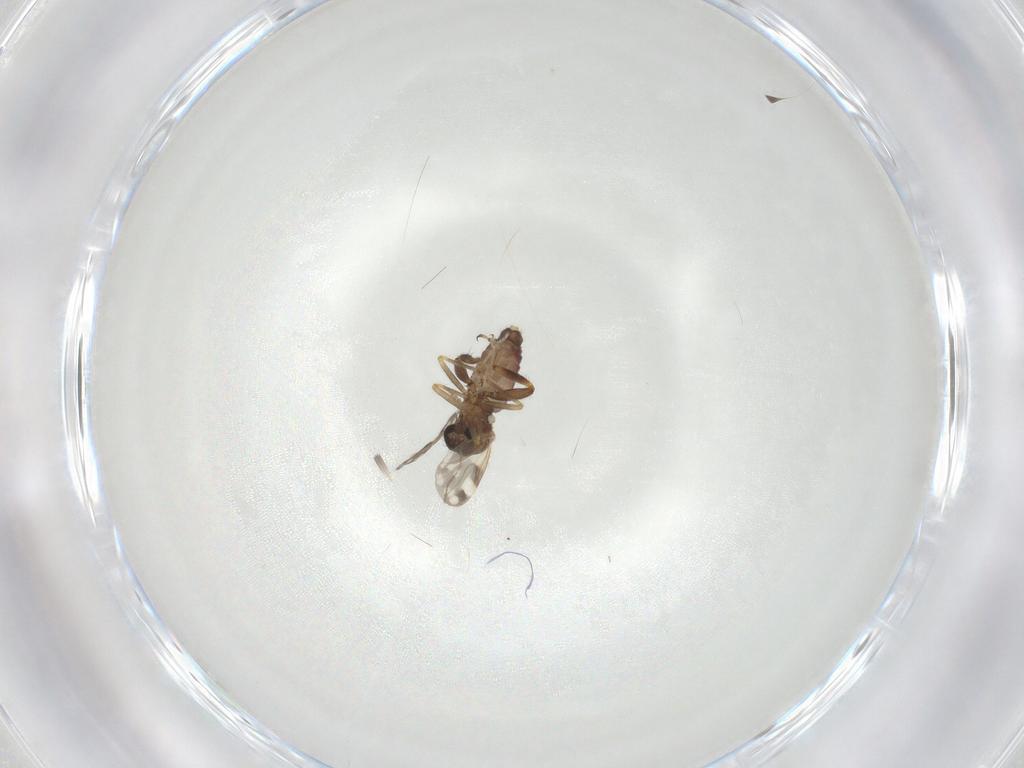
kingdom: Animalia
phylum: Arthropoda
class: Insecta
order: Diptera
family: Ceratopogonidae
